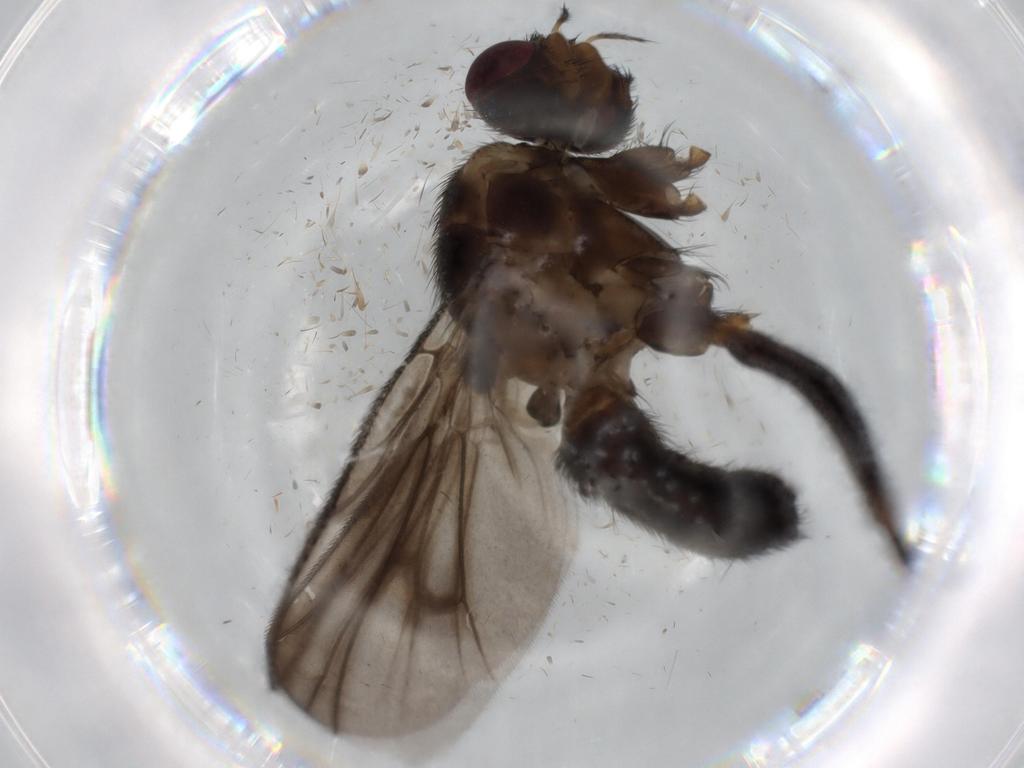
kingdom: Animalia
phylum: Arthropoda
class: Insecta
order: Diptera
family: Calliphoridae
